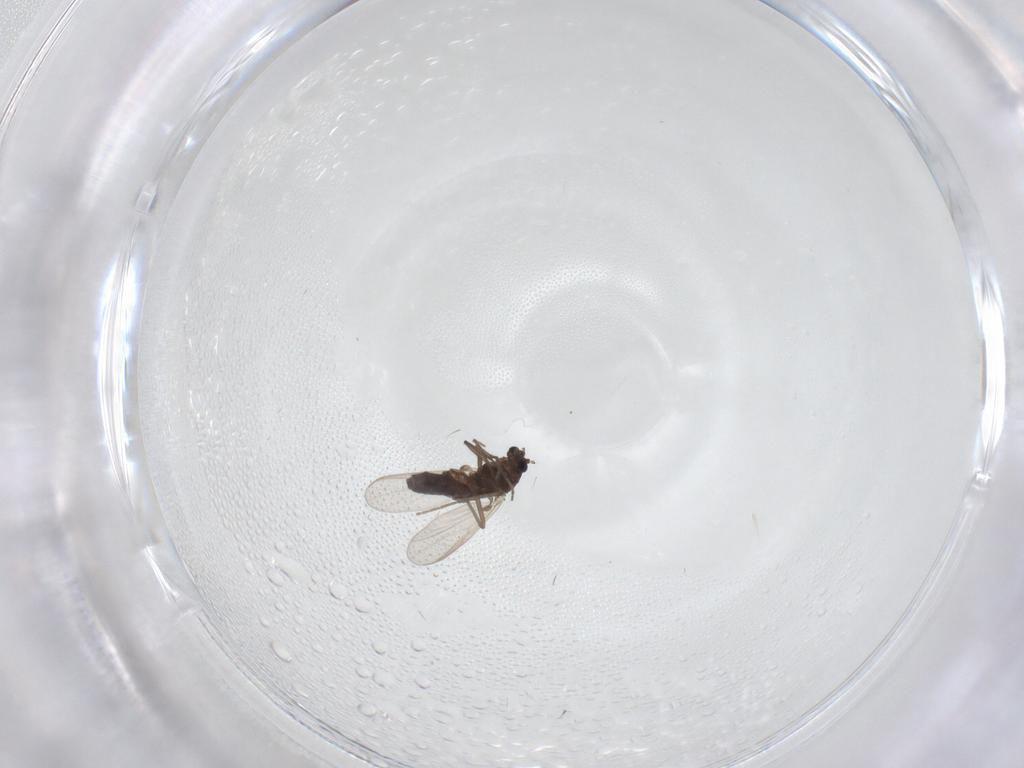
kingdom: Animalia
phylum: Arthropoda
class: Insecta
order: Diptera
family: Chironomidae
